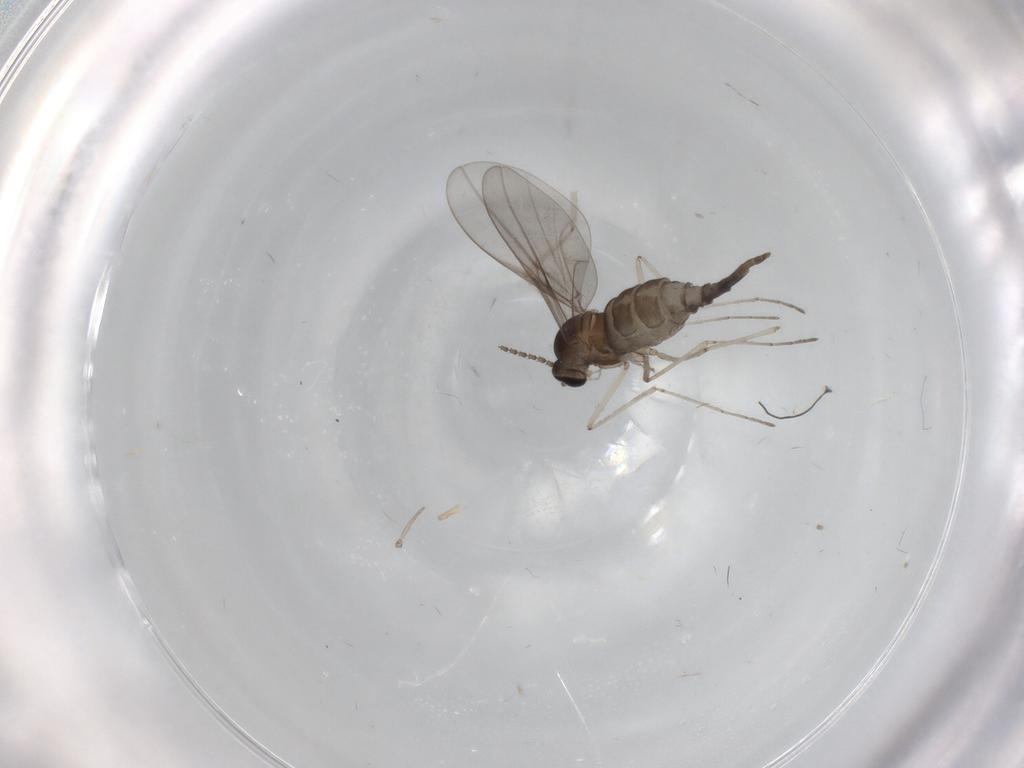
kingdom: Animalia
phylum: Arthropoda
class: Insecta
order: Diptera
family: Cecidomyiidae
